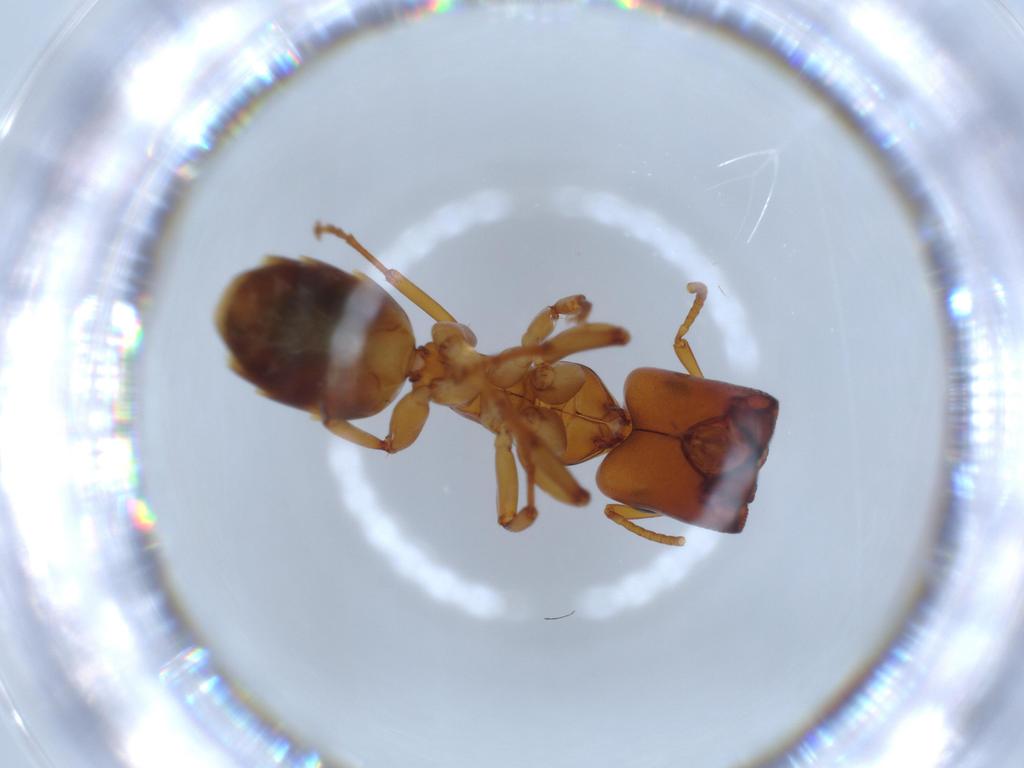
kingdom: Animalia
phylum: Arthropoda
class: Insecta
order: Hymenoptera
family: Formicidae
